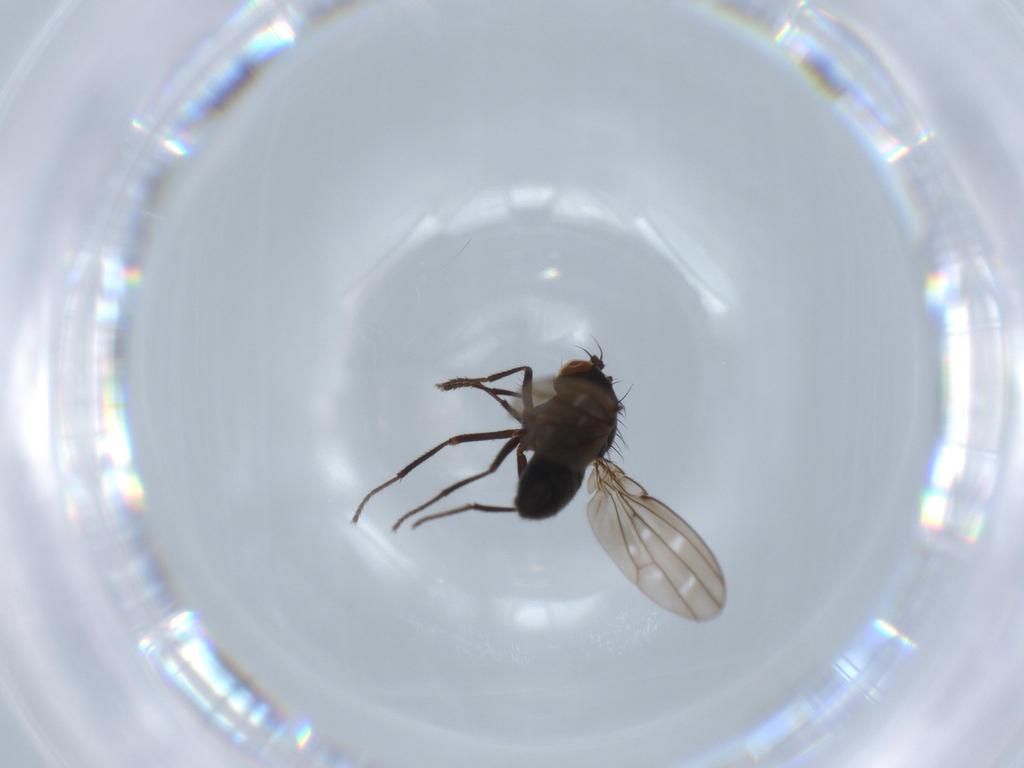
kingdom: Animalia
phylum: Arthropoda
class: Insecta
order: Diptera
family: Ephydridae
